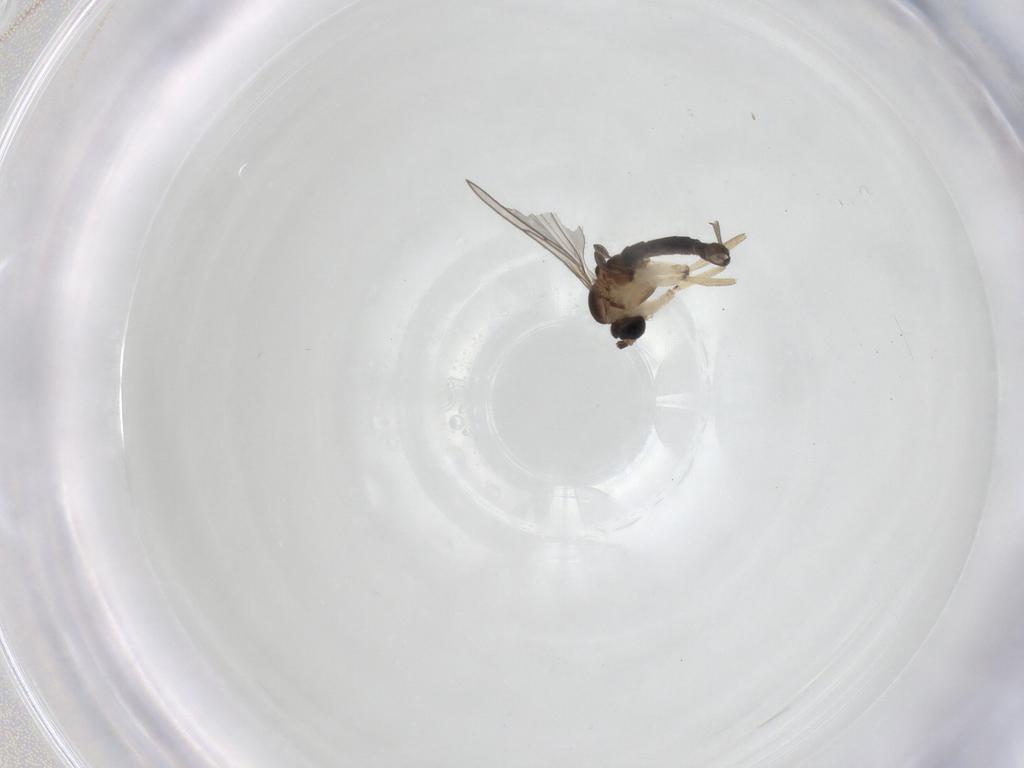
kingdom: Animalia
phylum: Arthropoda
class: Insecta
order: Diptera
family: Sciaridae
